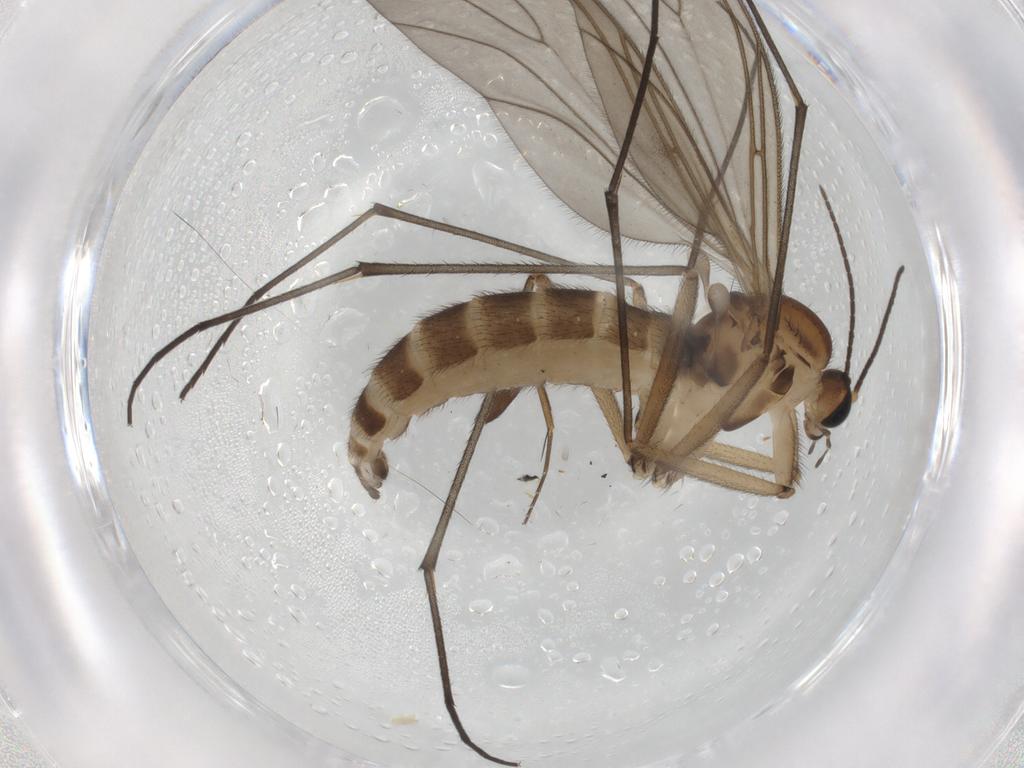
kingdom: Animalia
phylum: Arthropoda
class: Insecta
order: Diptera
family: Sciaridae
